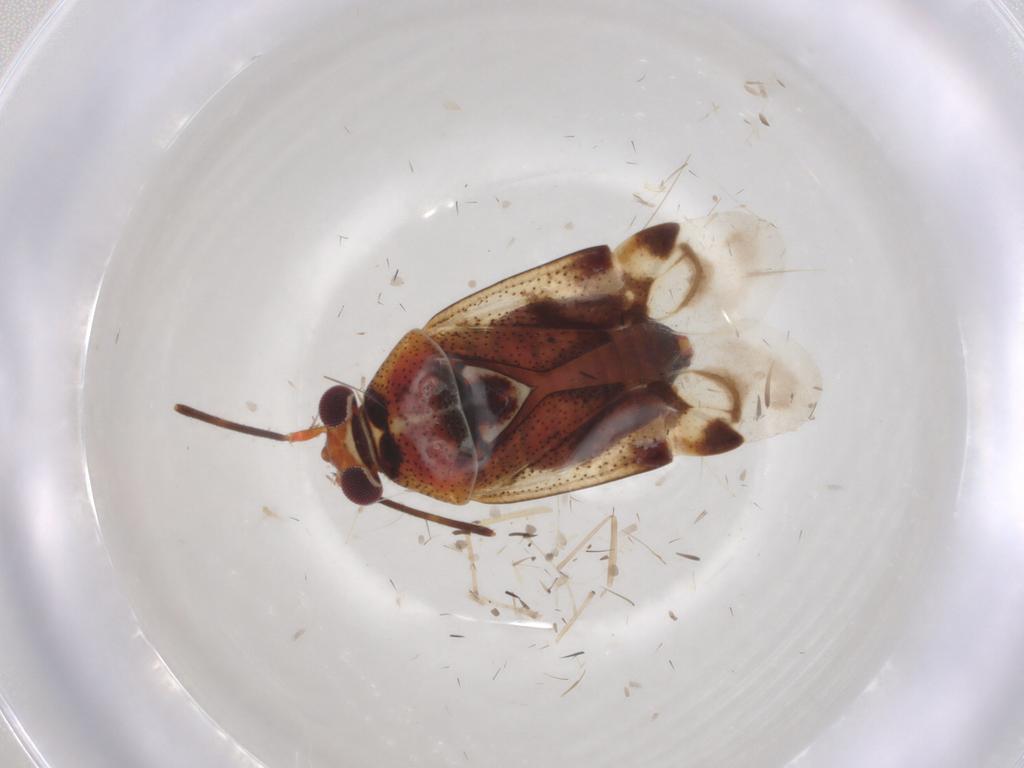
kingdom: Animalia
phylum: Arthropoda
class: Insecta
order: Hemiptera
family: Miridae
